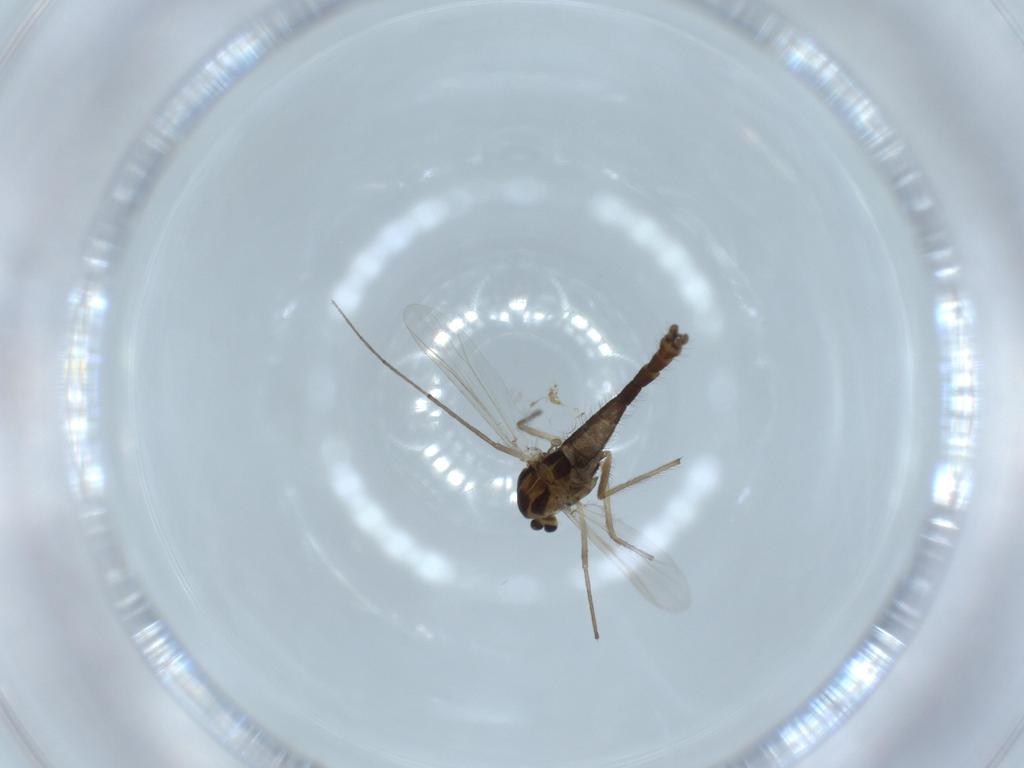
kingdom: Animalia
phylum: Arthropoda
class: Insecta
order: Diptera
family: Chironomidae
